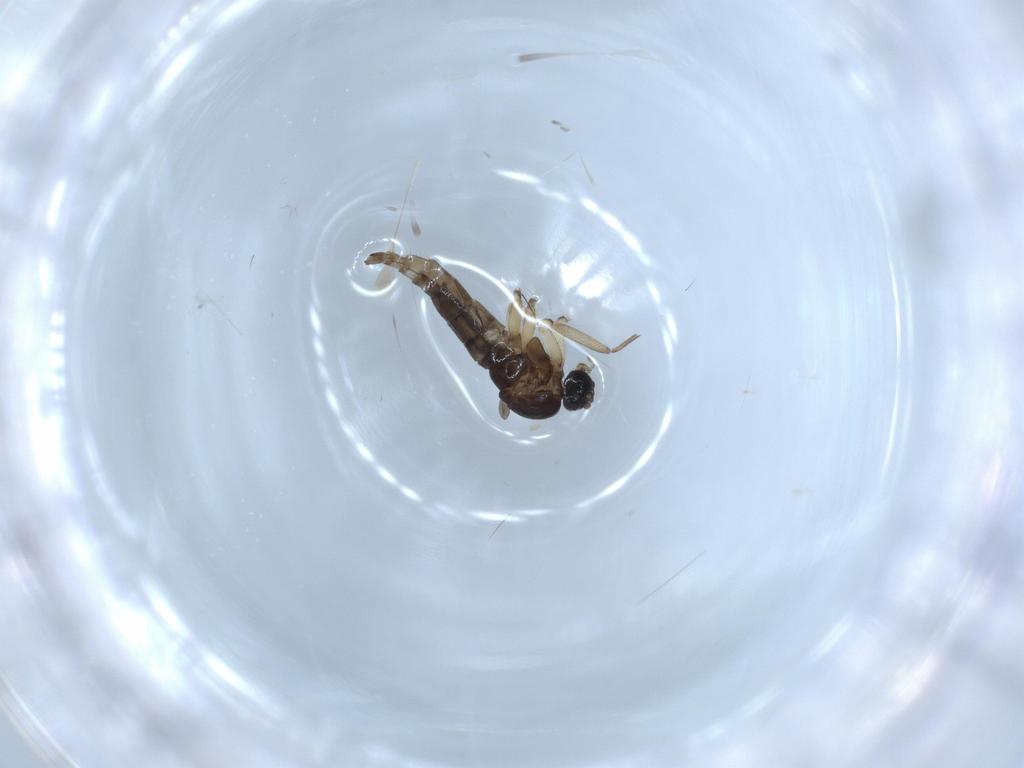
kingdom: Animalia
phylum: Arthropoda
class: Insecta
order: Diptera
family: Sciaridae
